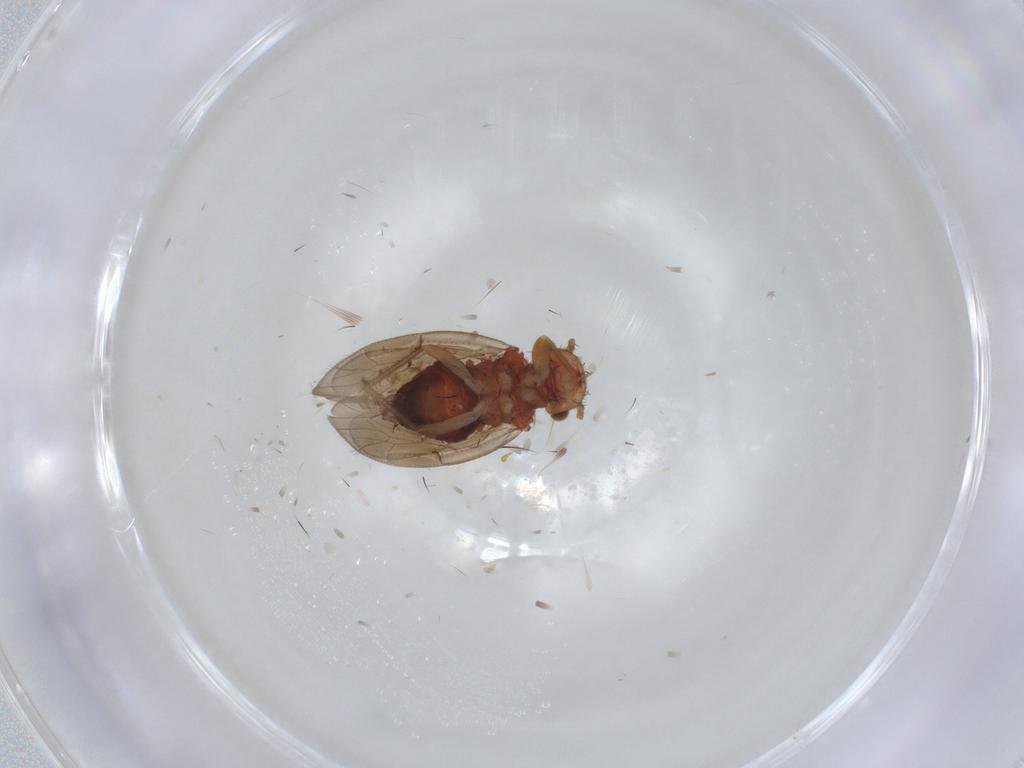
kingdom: Animalia
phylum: Arthropoda
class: Insecta
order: Psocodea
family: Ectopsocidae
